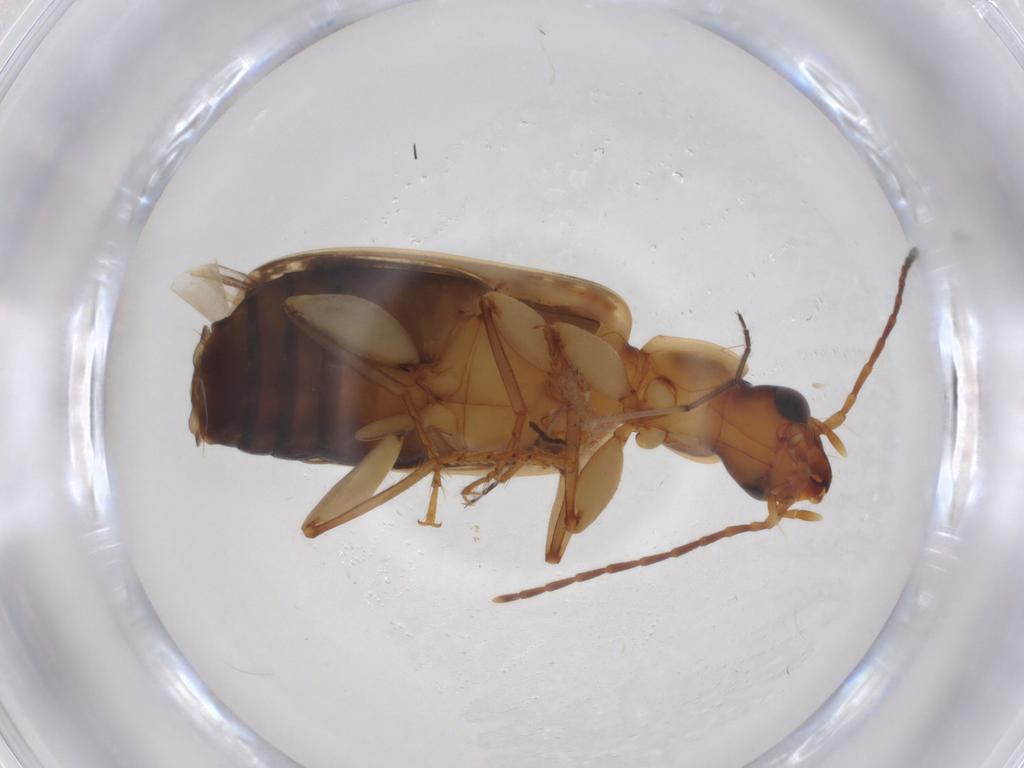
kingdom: Animalia
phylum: Arthropoda
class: Insecta
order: Coleoptera
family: Carabidae
